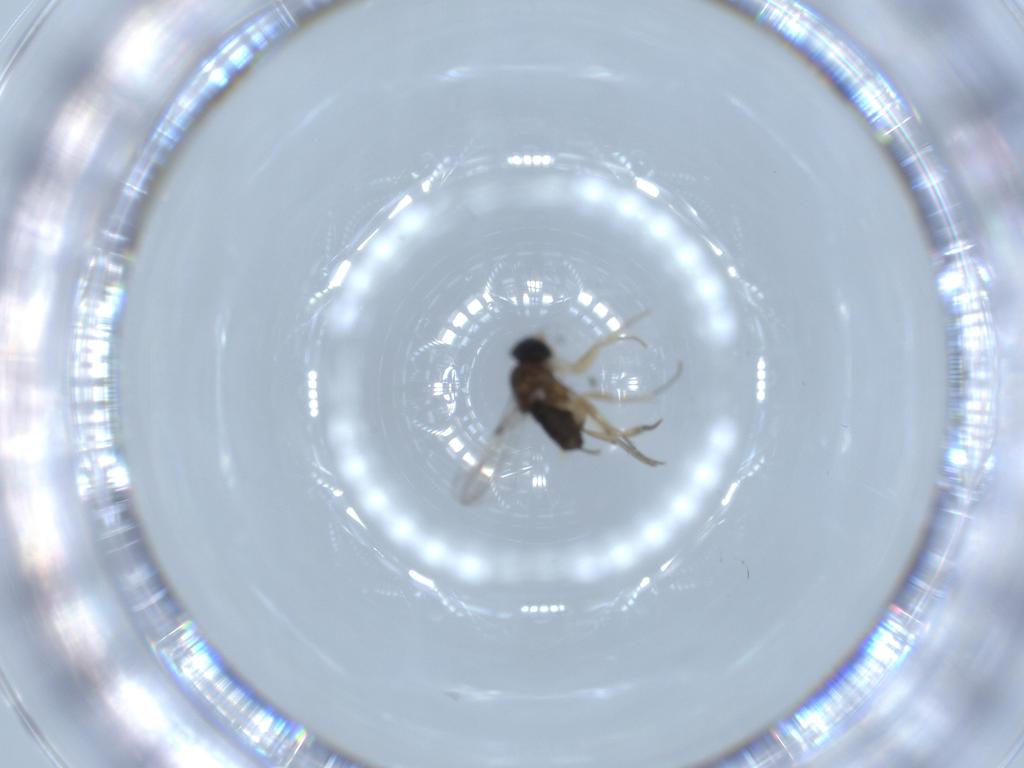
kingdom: Animalia
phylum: Arthropoda
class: Insecta
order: Diptera
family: Phoridae
